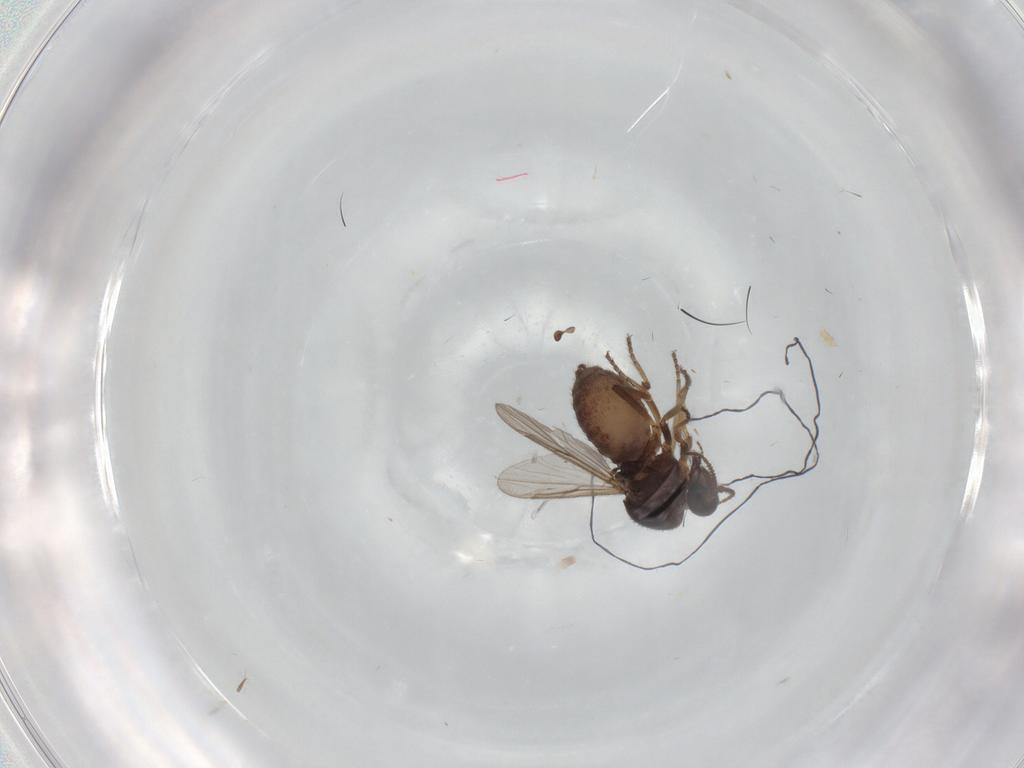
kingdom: Animalia
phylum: Arthropoda
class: Insecta
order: Diptera
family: Ceratopogonidae
